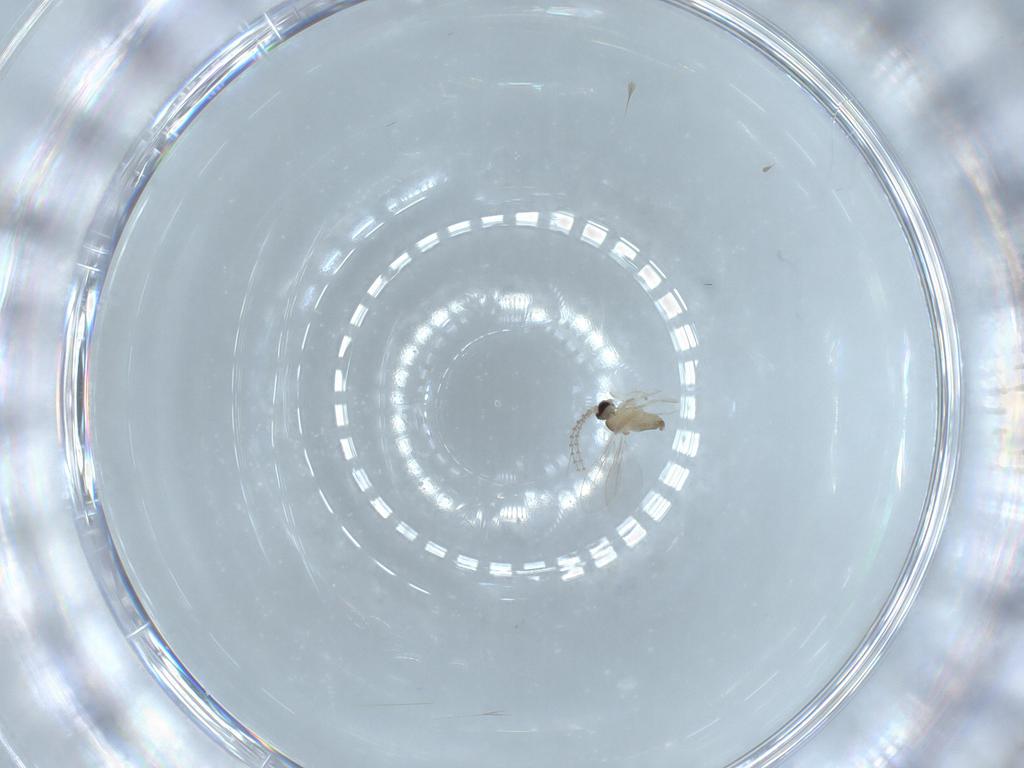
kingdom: Animalia
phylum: Arthropoda
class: Insecta
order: Diptera
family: Cecidomyiidae
